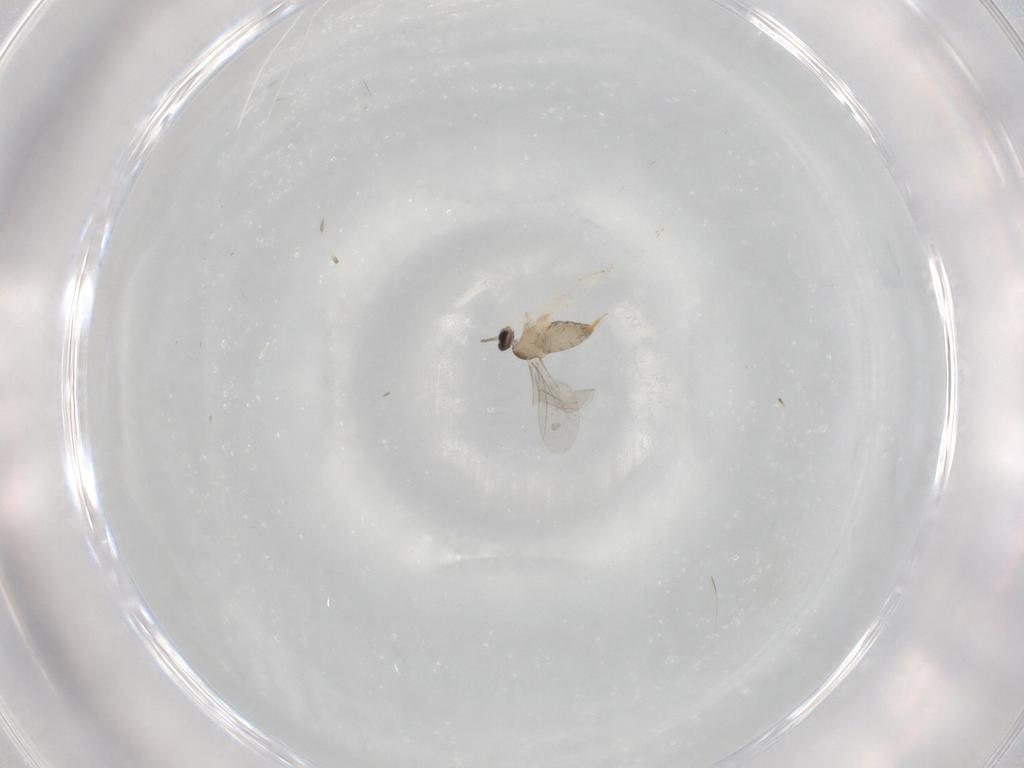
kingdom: Animalia
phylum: Arthropoda
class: Insecta
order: Diptera
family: Cecidomyiidae
